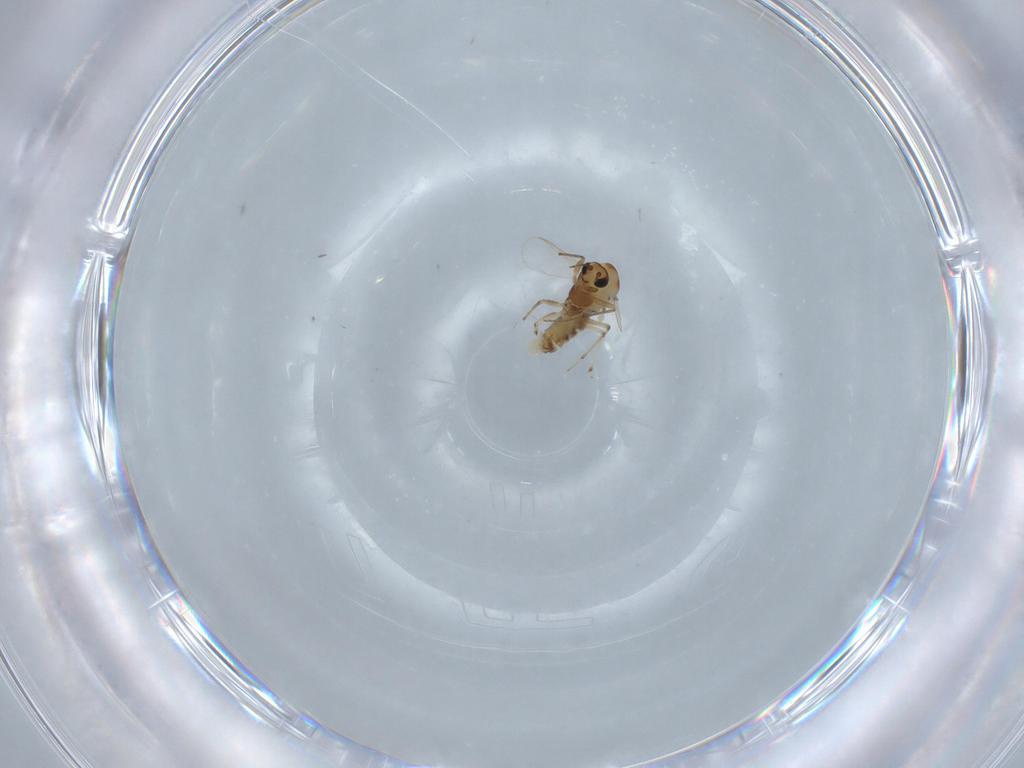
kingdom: Animalia
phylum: Arthropoda
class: Insecta
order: Diptera
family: Chironomidae
